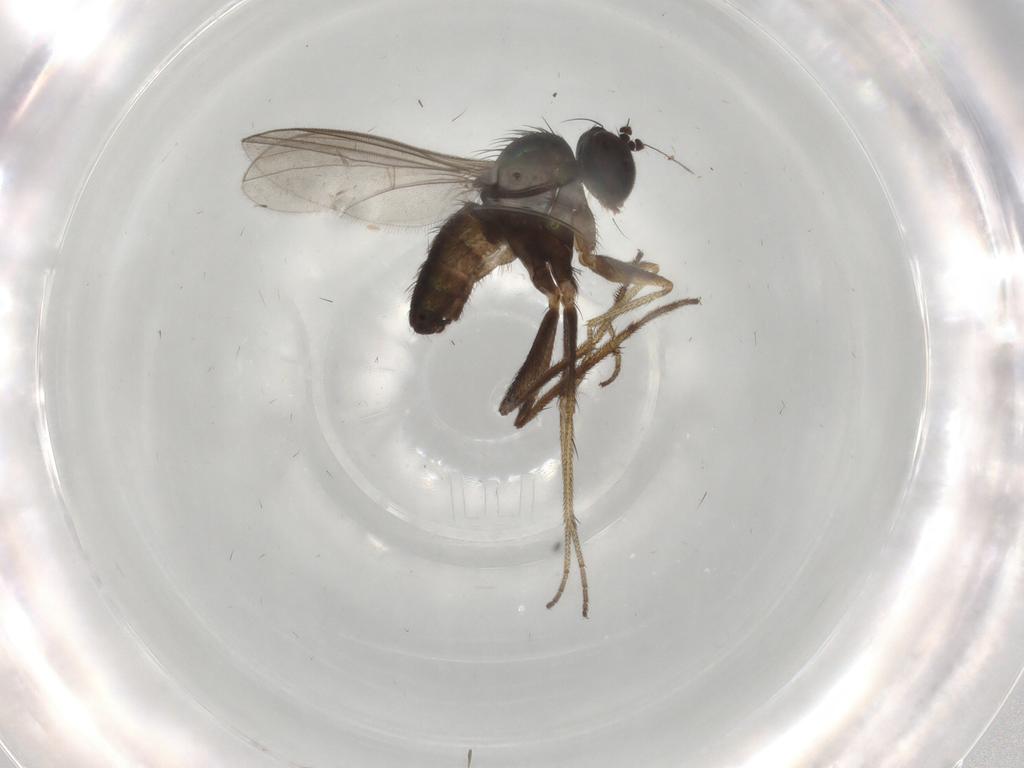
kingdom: Animalia
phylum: Arthropoda
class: Insecta
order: Diptera
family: Dolichopodidae
